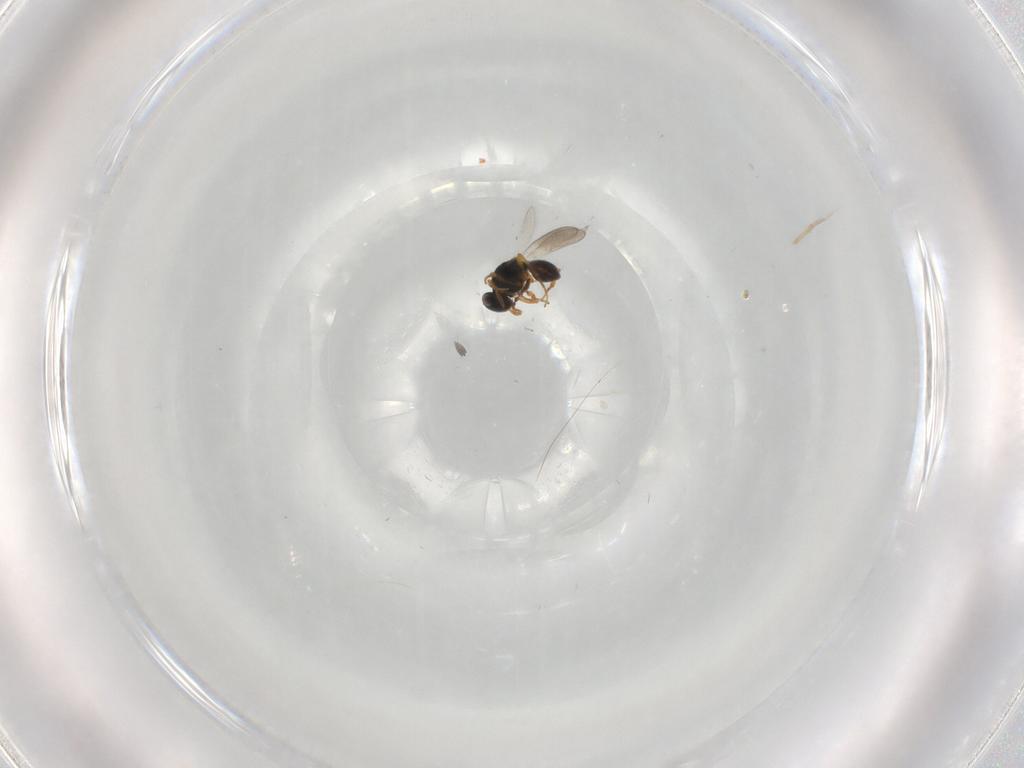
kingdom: Animalia
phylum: Arthropoda
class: Insecta
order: Hymenoptera
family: Platygastridae
